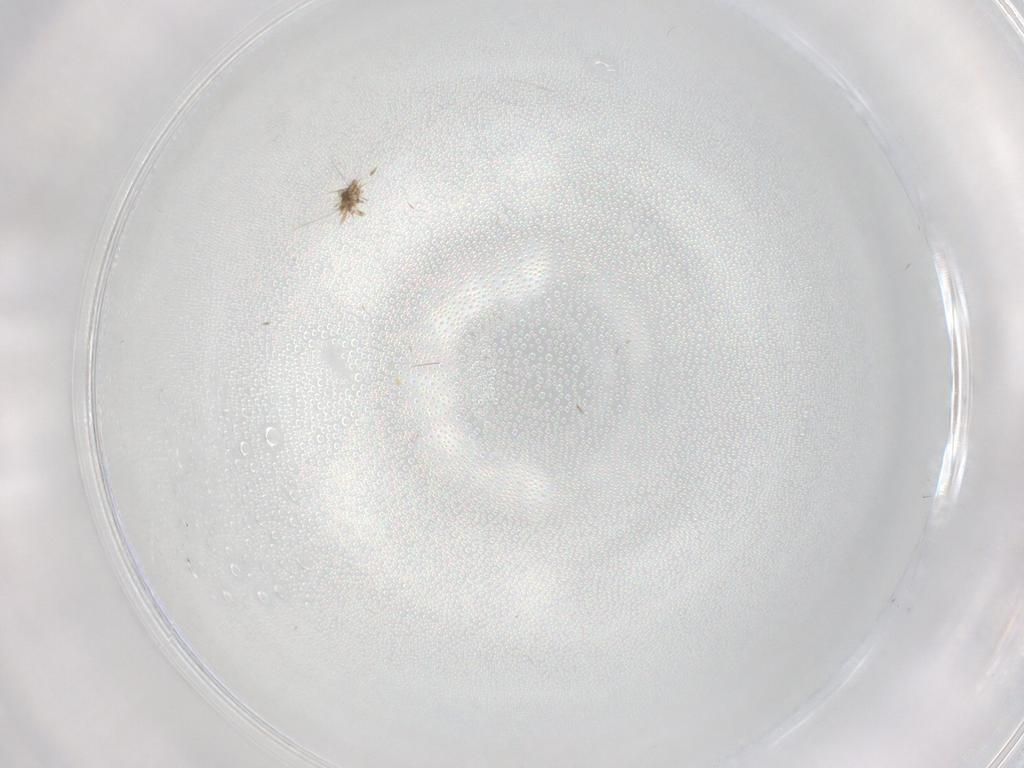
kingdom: Animalia
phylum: Arthropoda
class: Insecta
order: Diptera
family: Cecidomyiidae
